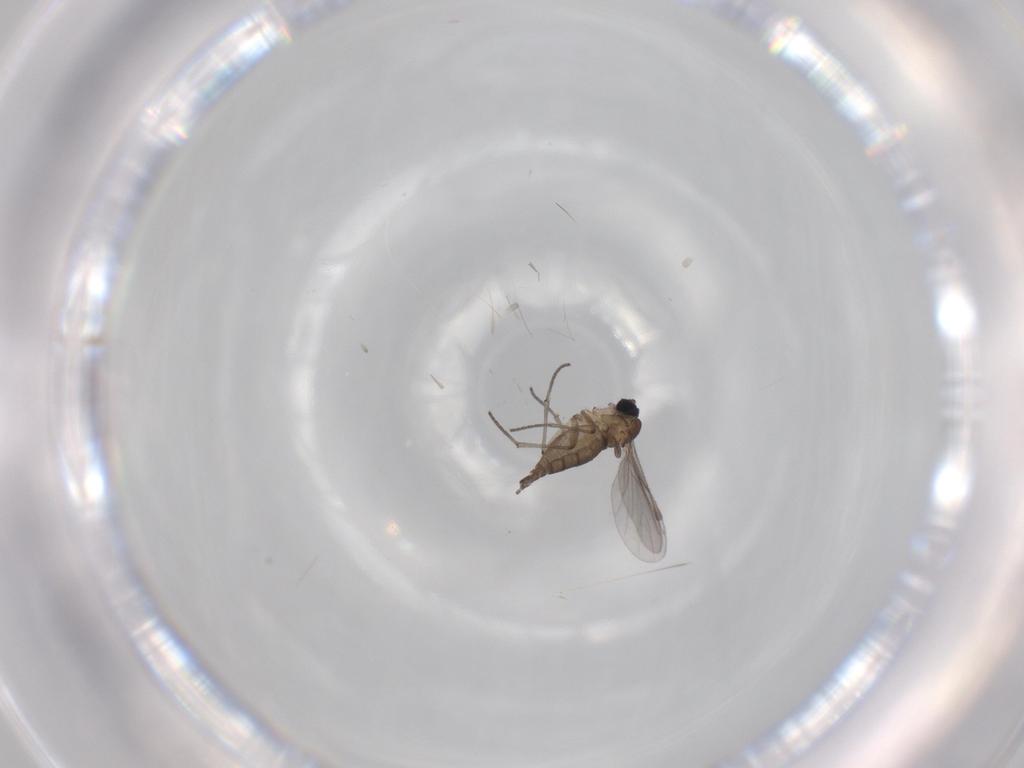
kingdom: Animalia
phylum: Arthropoda
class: Insecta
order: Diptera
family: Sciaridae
